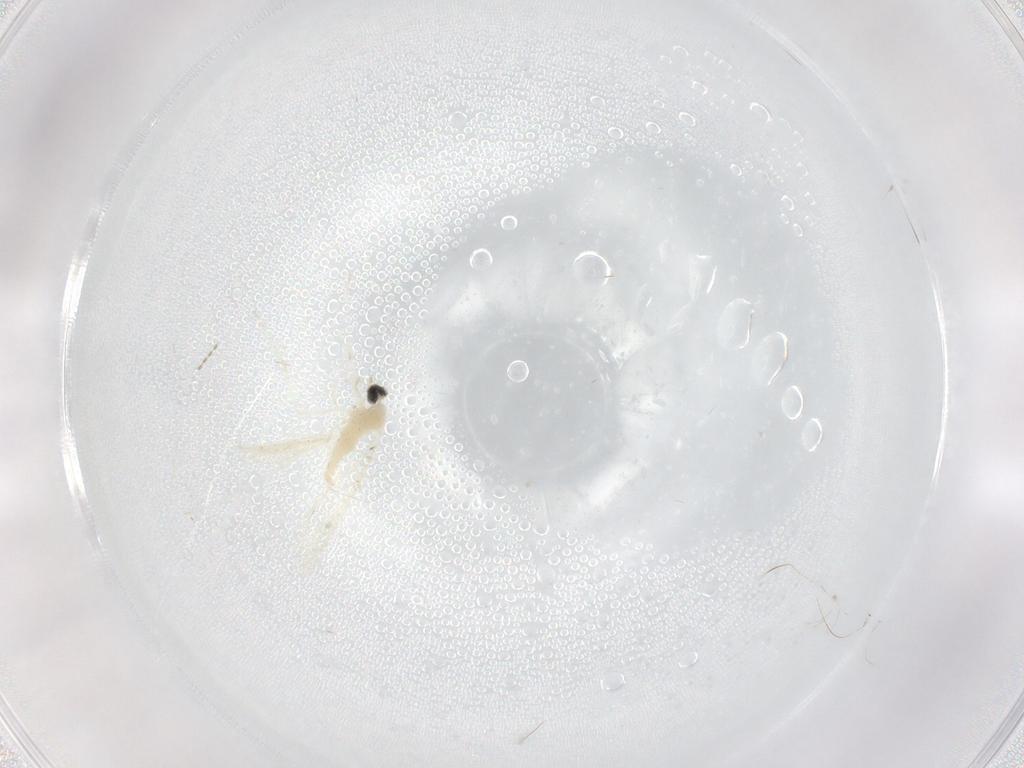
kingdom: Animalia
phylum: Arthropoda
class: Insecta
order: Diptera
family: Cecidomyiidae
